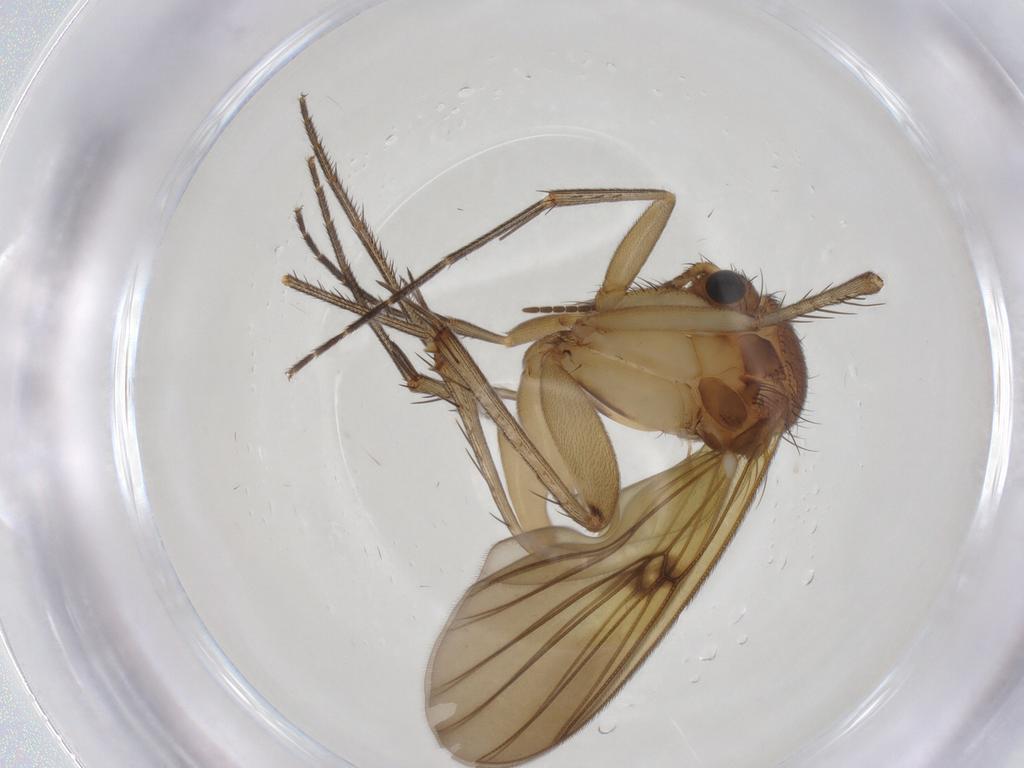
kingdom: Animalia
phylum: Arthropoda
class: Insecta
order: Diptera
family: Mycetophilidae
